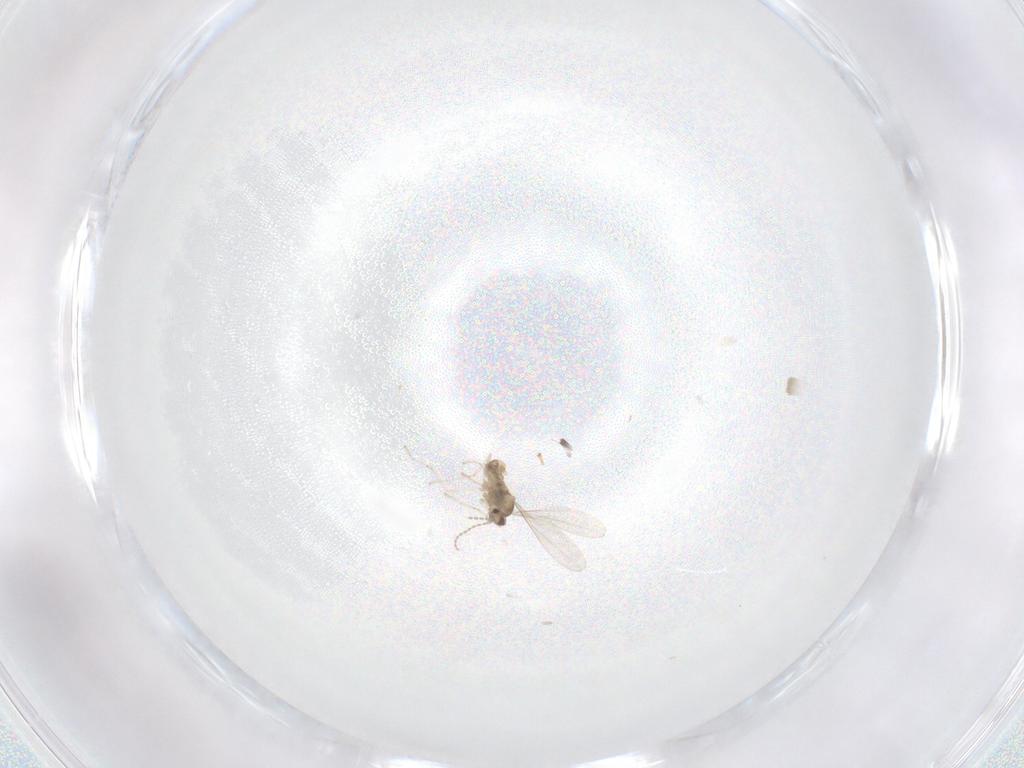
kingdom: Animalia
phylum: Arthropoda
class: Insecta
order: Diptera
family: Cecidomyiidae
